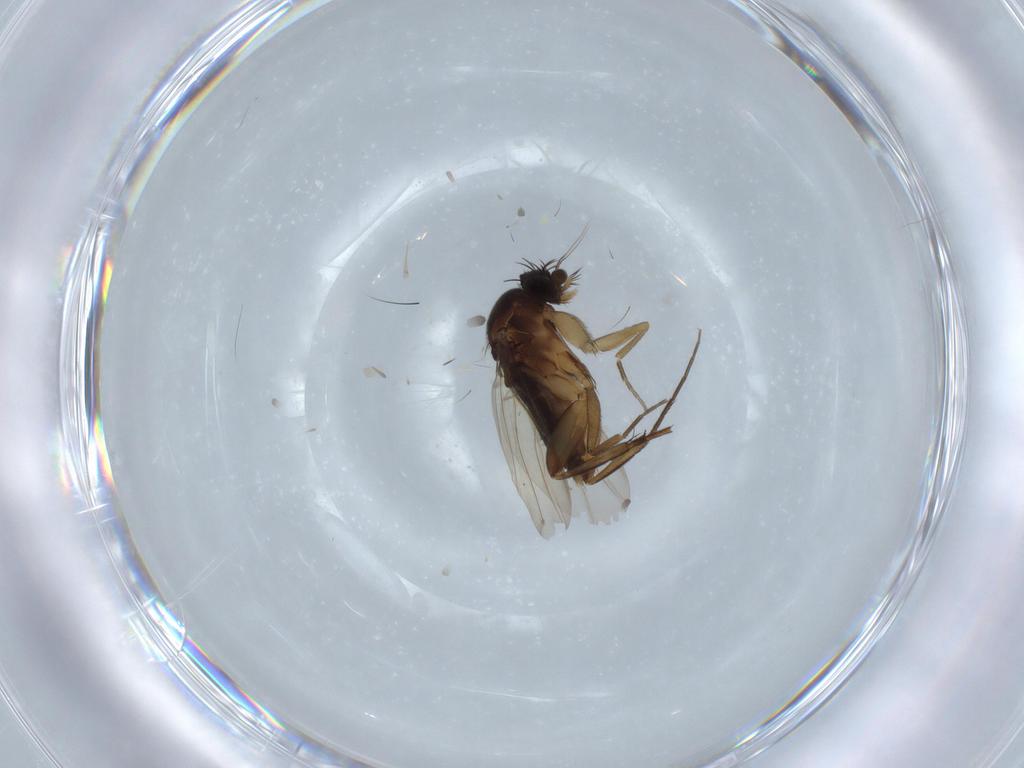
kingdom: Animalia
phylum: Arthropoda
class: Insecta
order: Diptera
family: Phoridae
